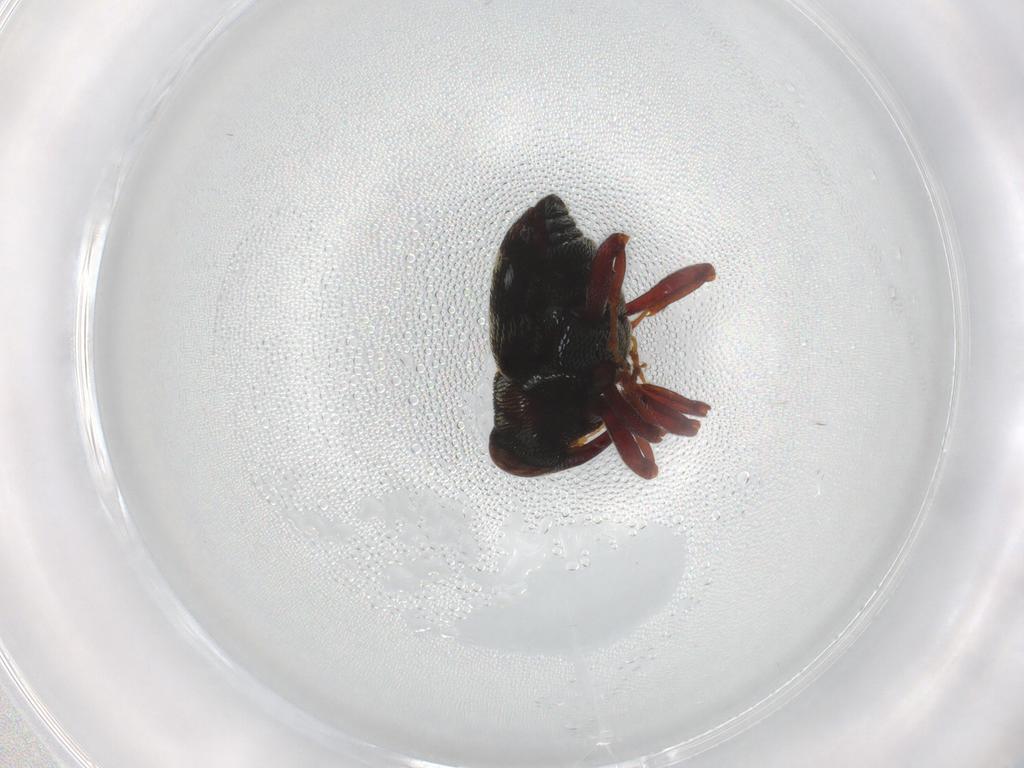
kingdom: Animalia
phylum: Arthropoda
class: Insecta
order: Coleoptera
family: Curculionidae
